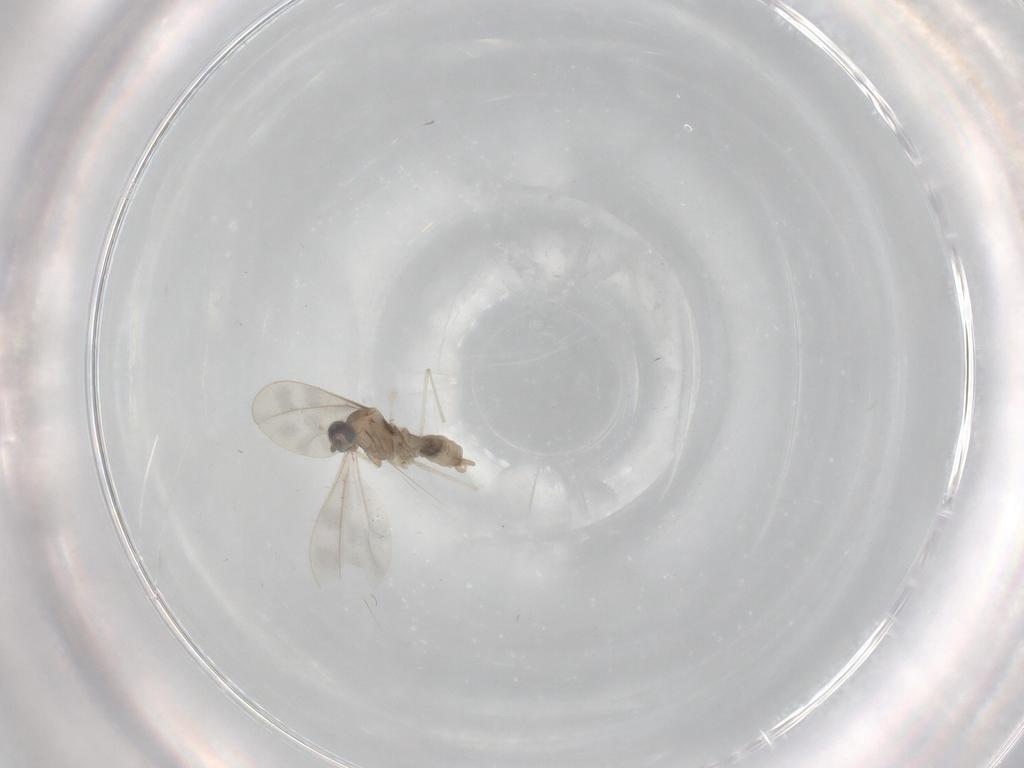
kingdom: Animalia
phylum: Arthropoda
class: Insecta
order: Diptera
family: Cecidomyiidae
